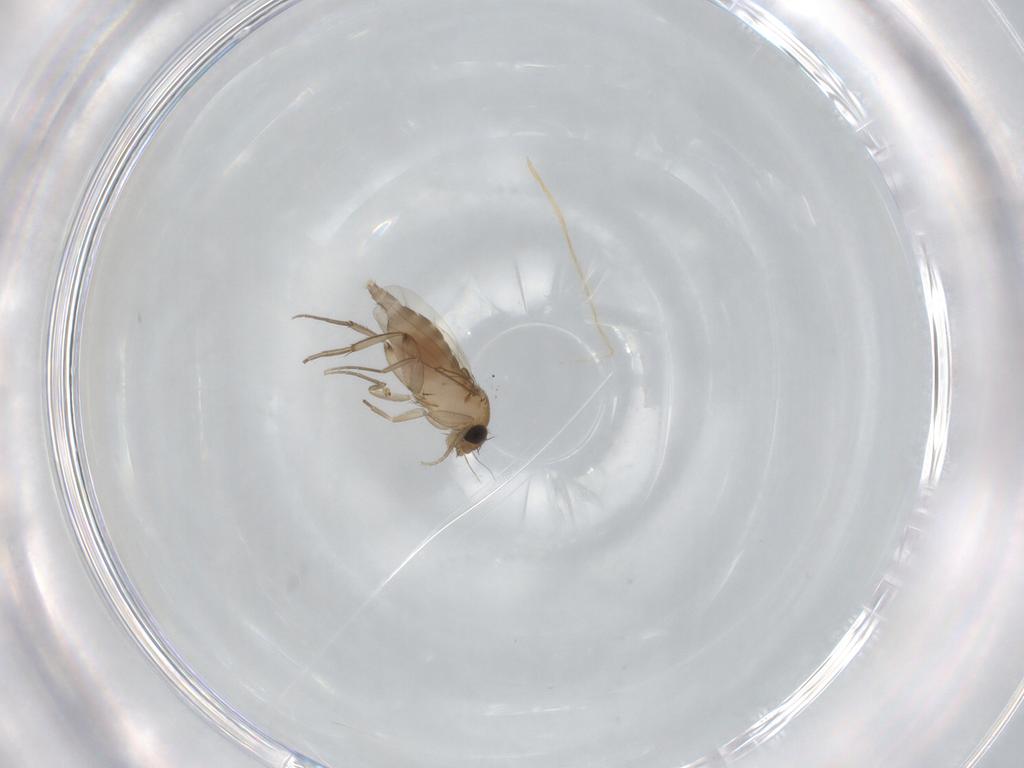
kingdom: Animalia
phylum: Arthropoda
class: Insecta
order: Diptera
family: Phoridae
